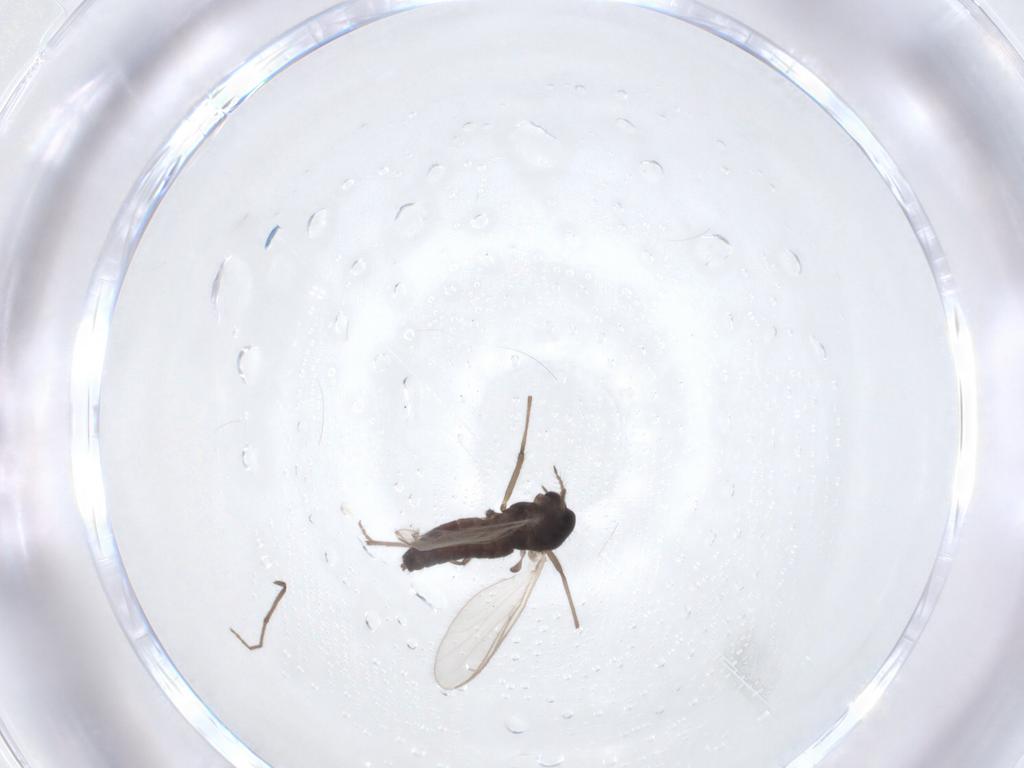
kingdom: Animalia
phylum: Arthropoda
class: Insecta
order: Diptera
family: Chironomidae
